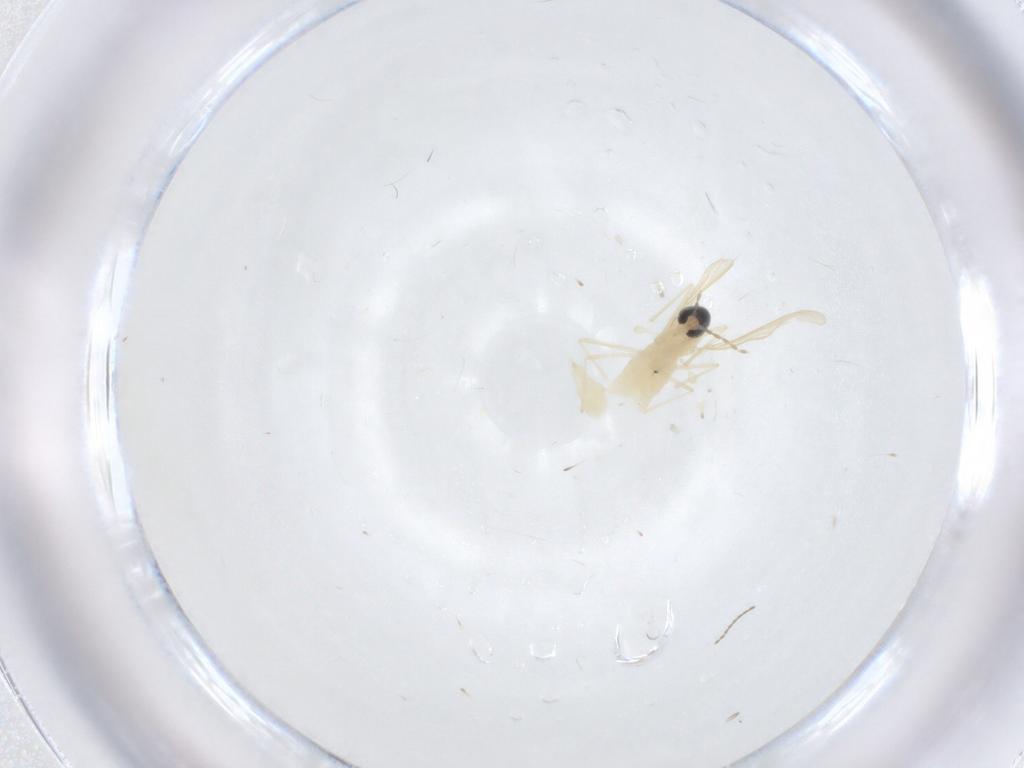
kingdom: Animalia
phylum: Arthropoda
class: Insecta
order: Diptera
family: Cecidomyiidae
